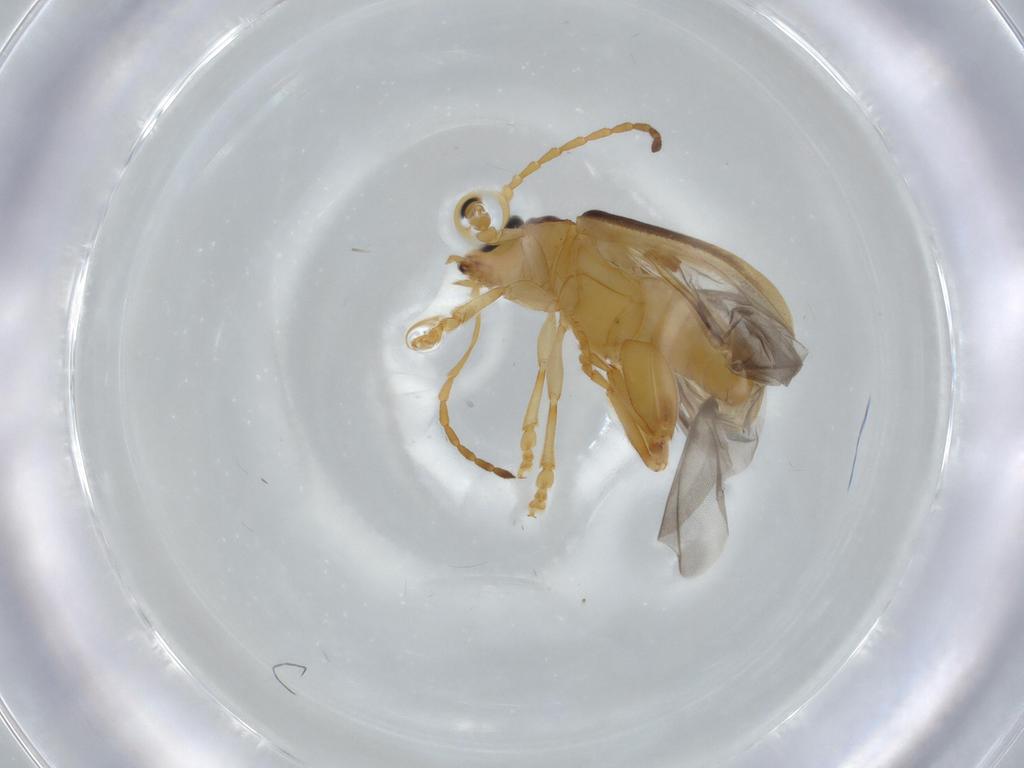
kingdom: Animalia
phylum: Arthropoda
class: Insecta
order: Coleoptera
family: Chrysomelidae
